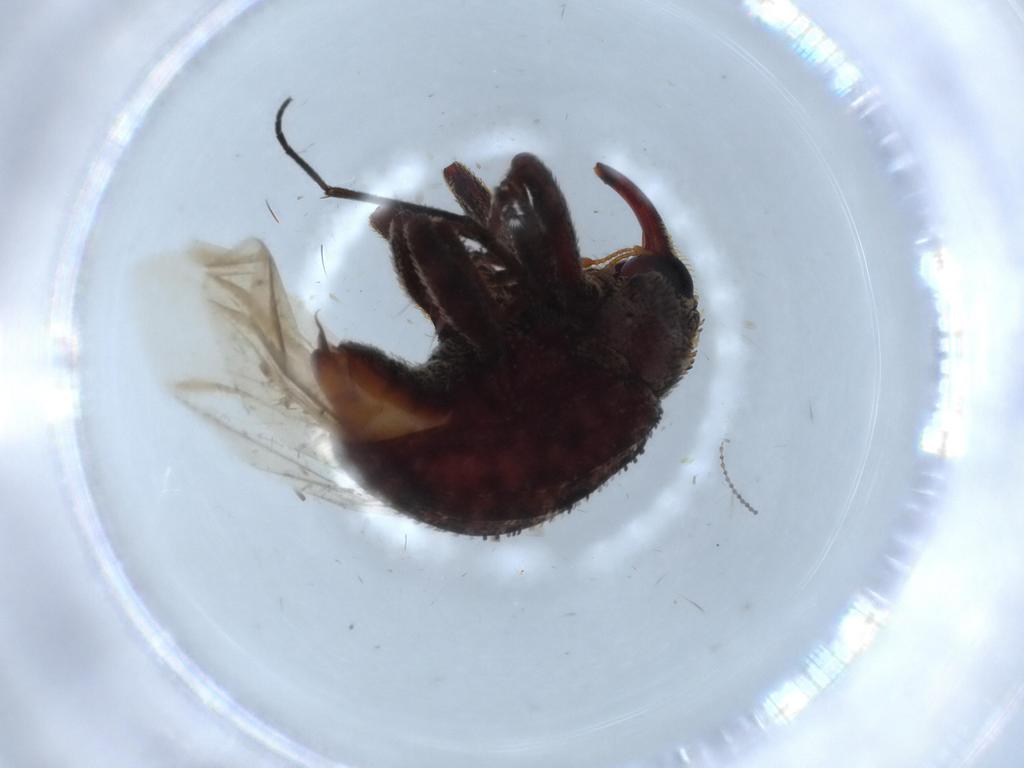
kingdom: Animalia
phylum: Arthropoda
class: Insecta
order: Coleoptera
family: Curculionidae
